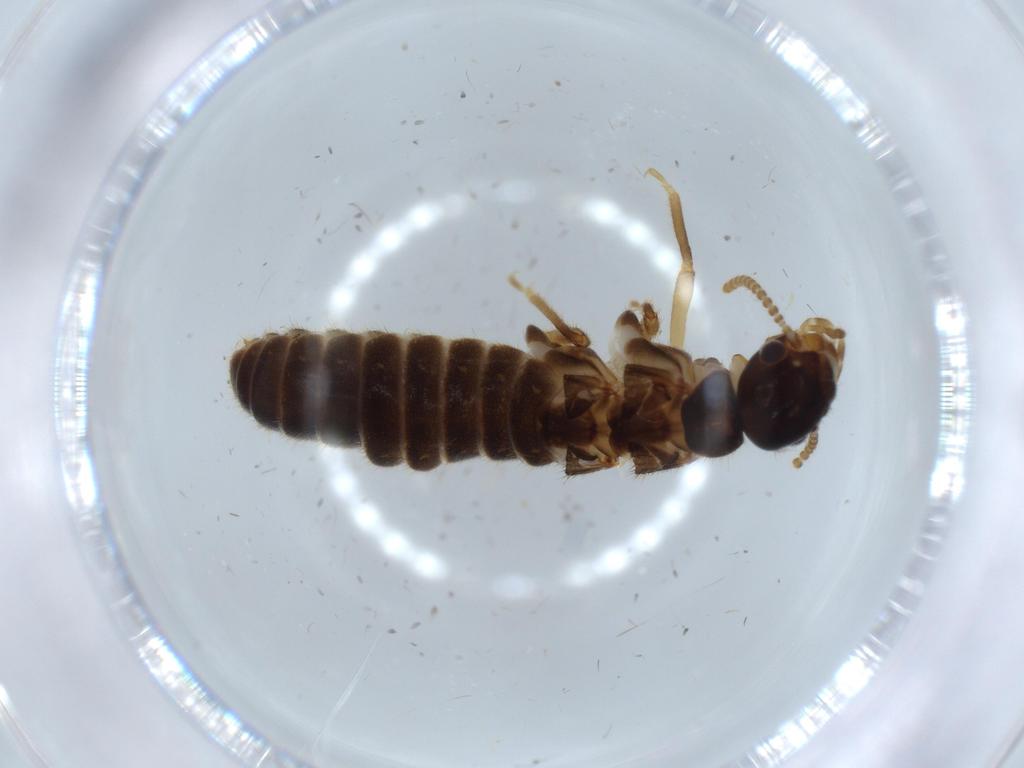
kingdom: Animalia
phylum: Arthropoda
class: Insecta
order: Blattodea
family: Termitidae
